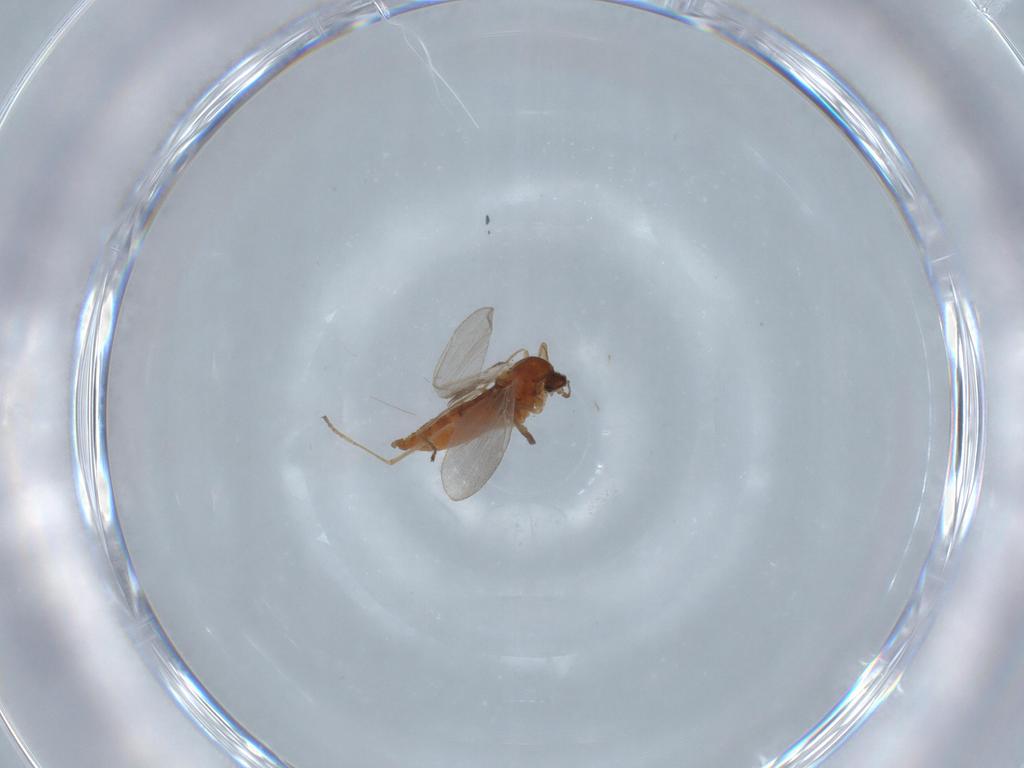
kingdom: Animalia
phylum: Arthropoda
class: Insecta
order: Diptera
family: Cecidomyiidae
